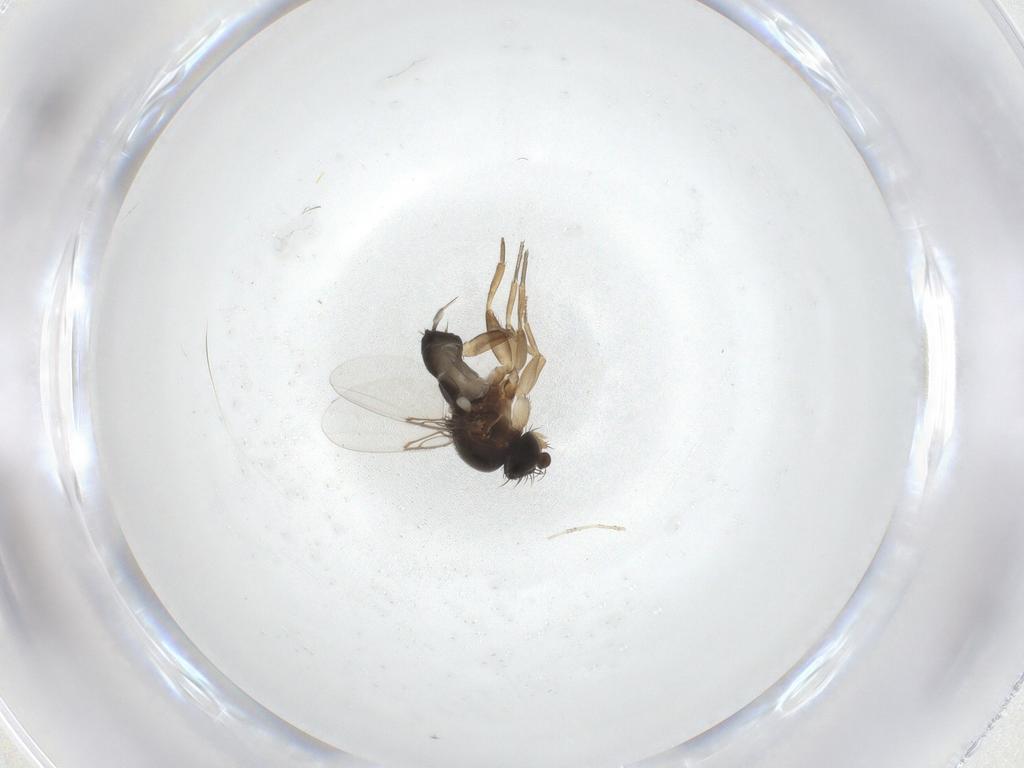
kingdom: Animalia
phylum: Arthropoda
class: Insecta
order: Diptera
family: Phoridae
